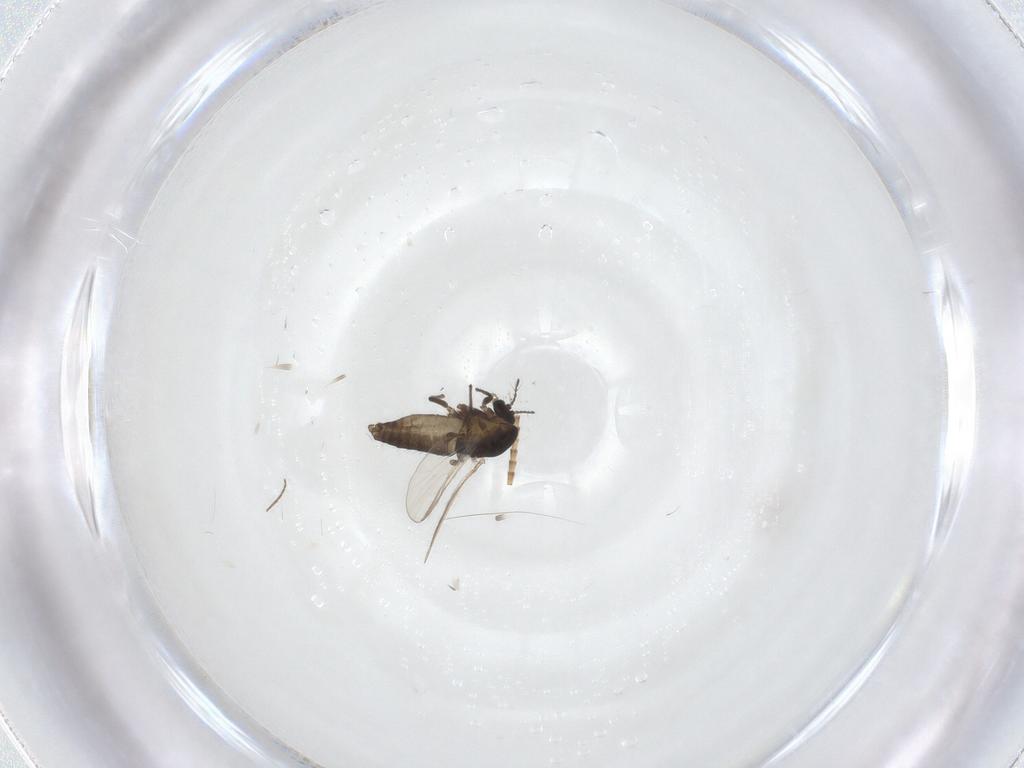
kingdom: Animalia
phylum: Arthropoda
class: Insecta
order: Diptera
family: Chironomidae
